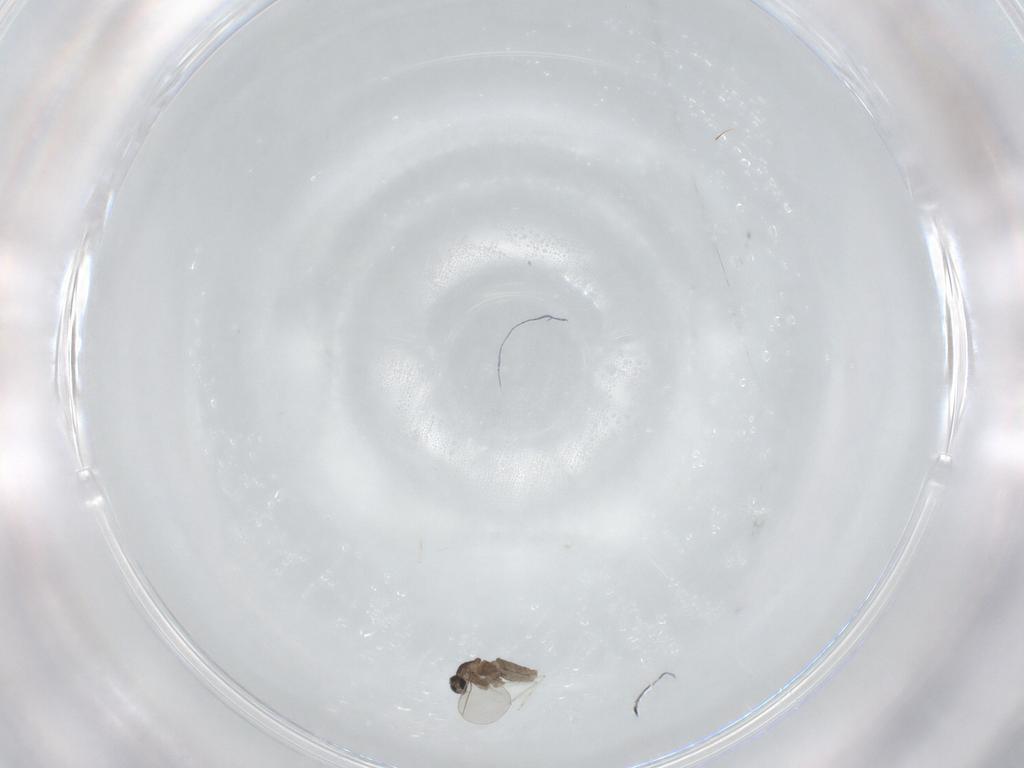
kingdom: Animalia
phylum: Arthropoda
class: Insecta
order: Diptera
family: Cecidomyiidae
